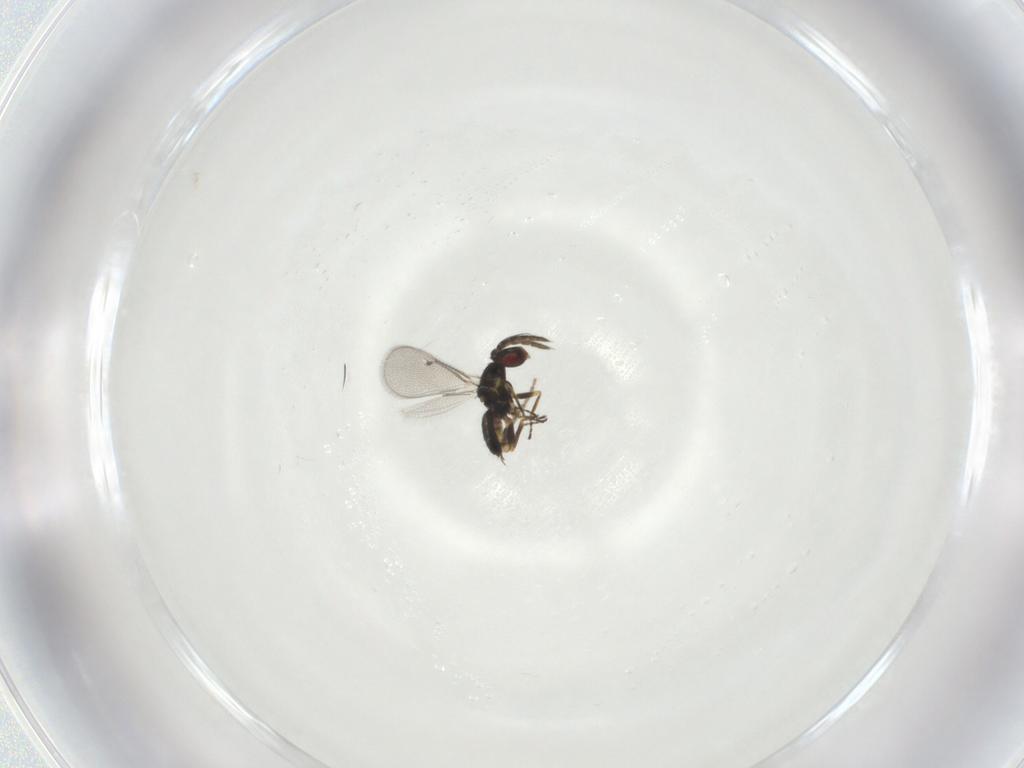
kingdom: Animalia
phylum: Arthropoda
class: Insecta
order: Hymenoptera
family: Eulophidae
